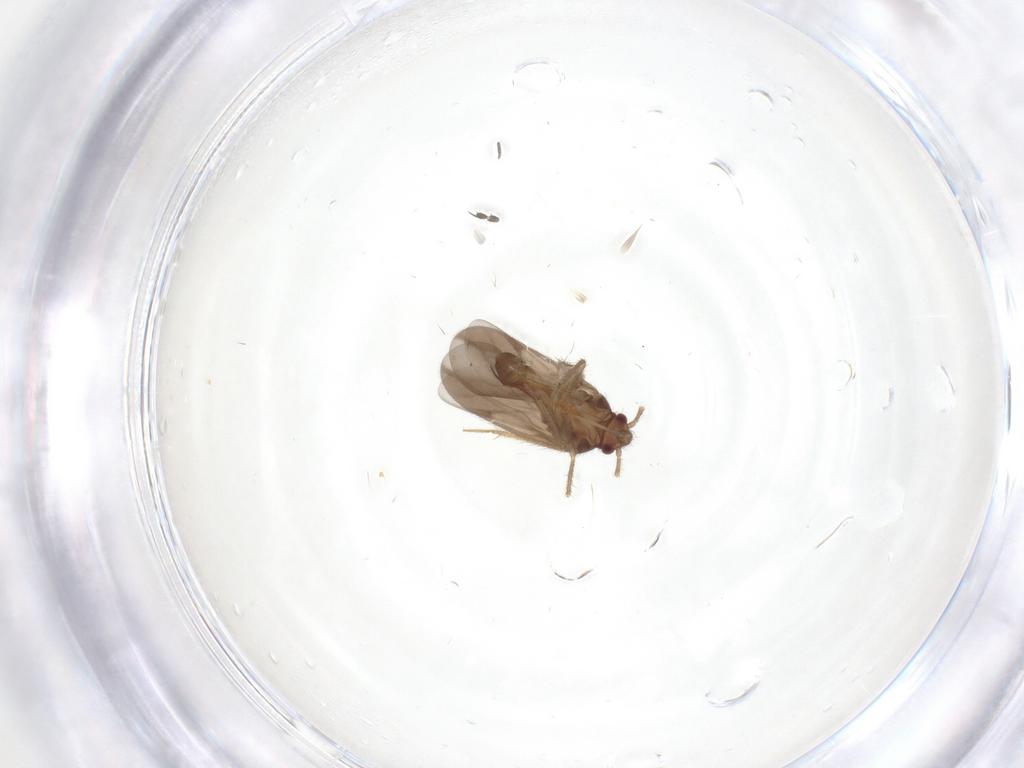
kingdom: Animalia
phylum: Arthropoda
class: Insecta
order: Hemiptera
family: Ceratocombidae
